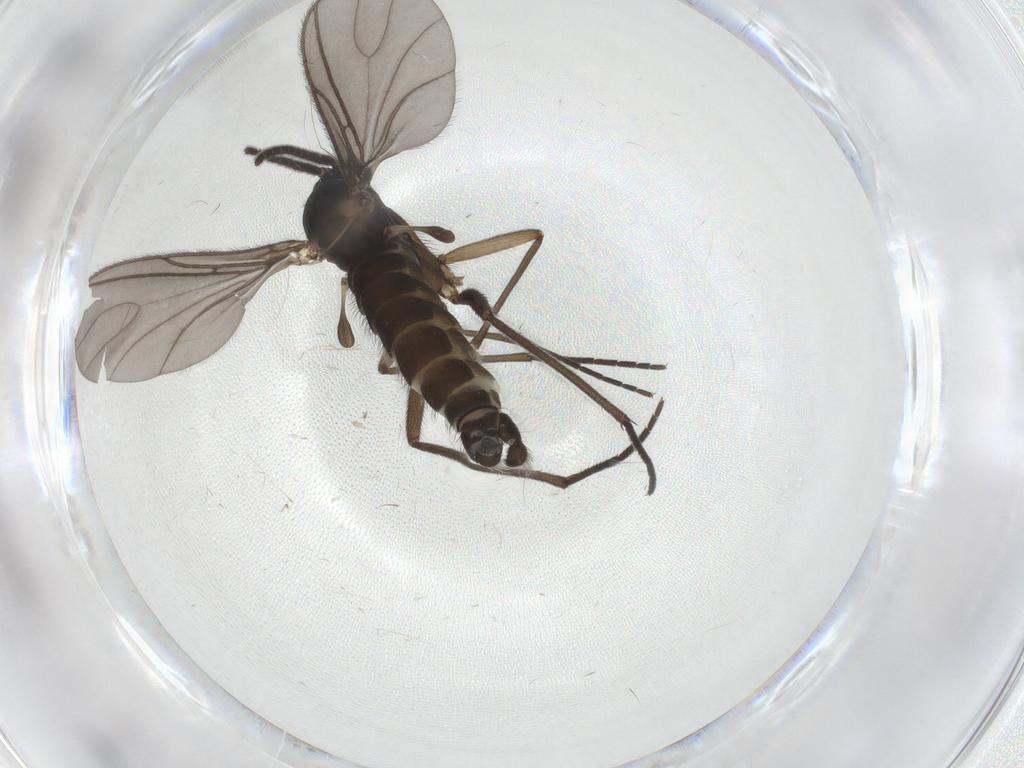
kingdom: Animalia
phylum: Arthropoda
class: Insecta
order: Diptera
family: Sciaridae
